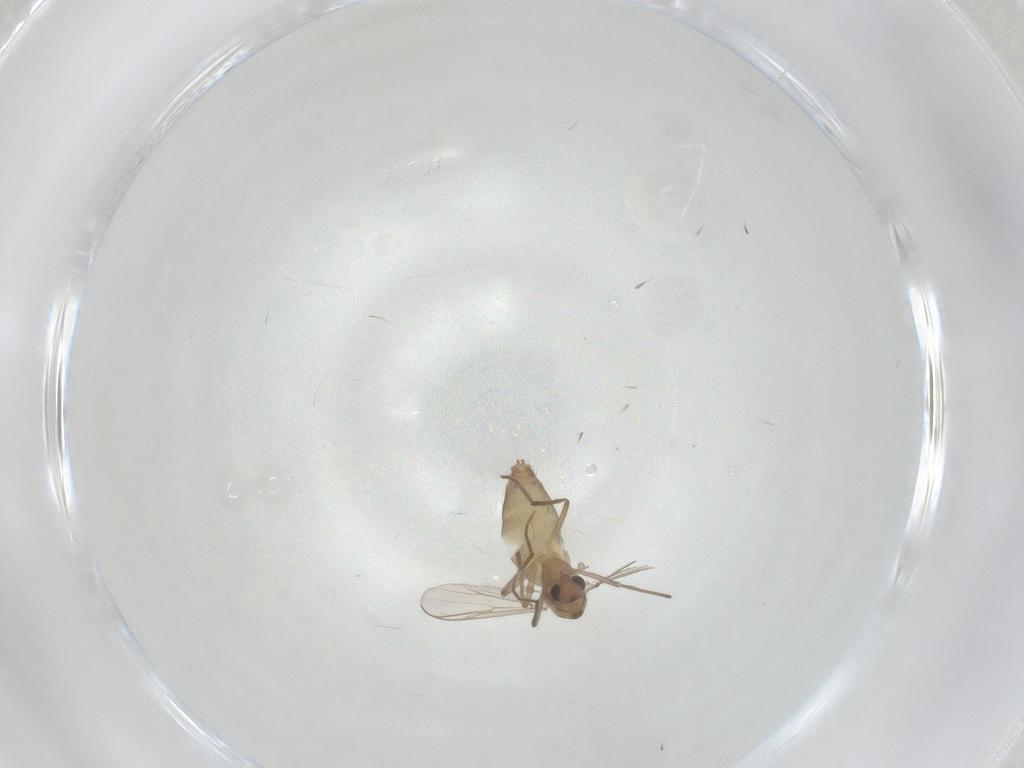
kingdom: Animalia
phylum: Arthropoda
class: Insecta
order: Diptera
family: Chironomidae
